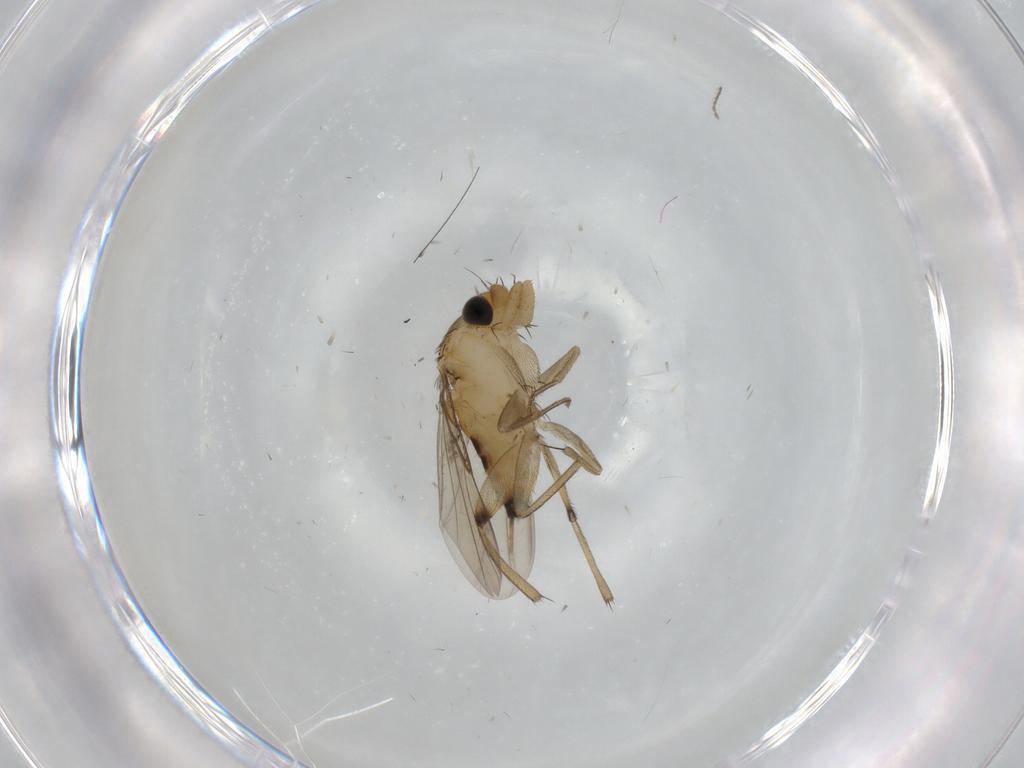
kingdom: Animalia
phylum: Arthropoda
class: Insecta
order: Diptera
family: Phoridae
